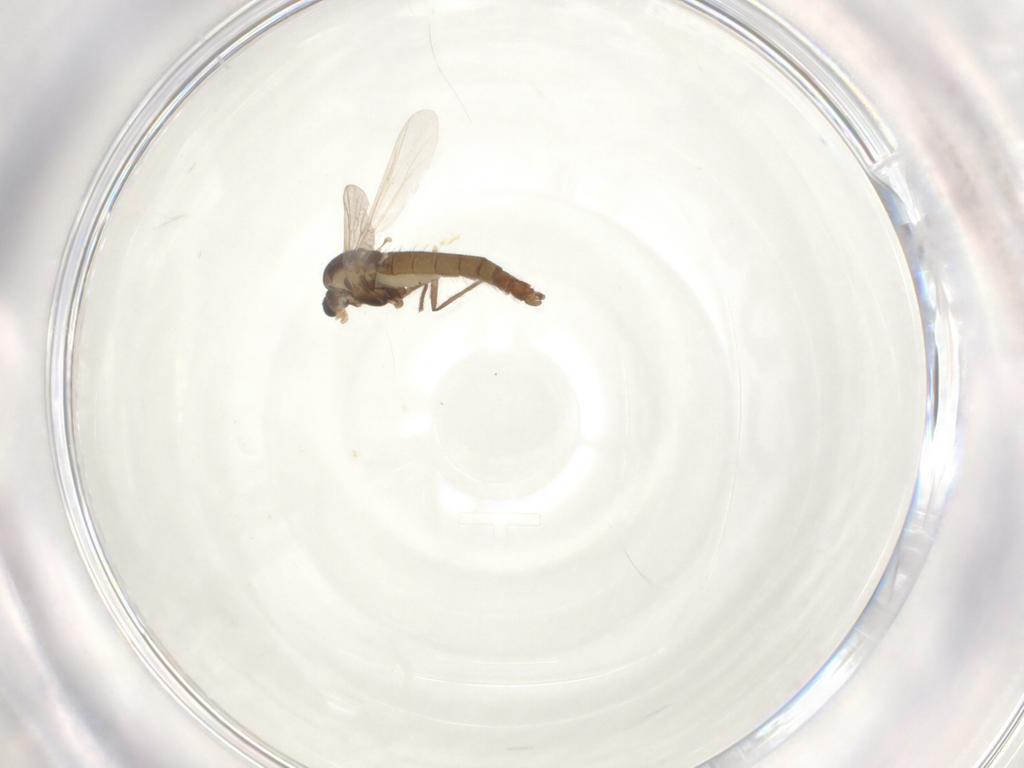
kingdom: Animalia
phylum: Arthropoda
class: Insecta
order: Diptera
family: Chironomidae
